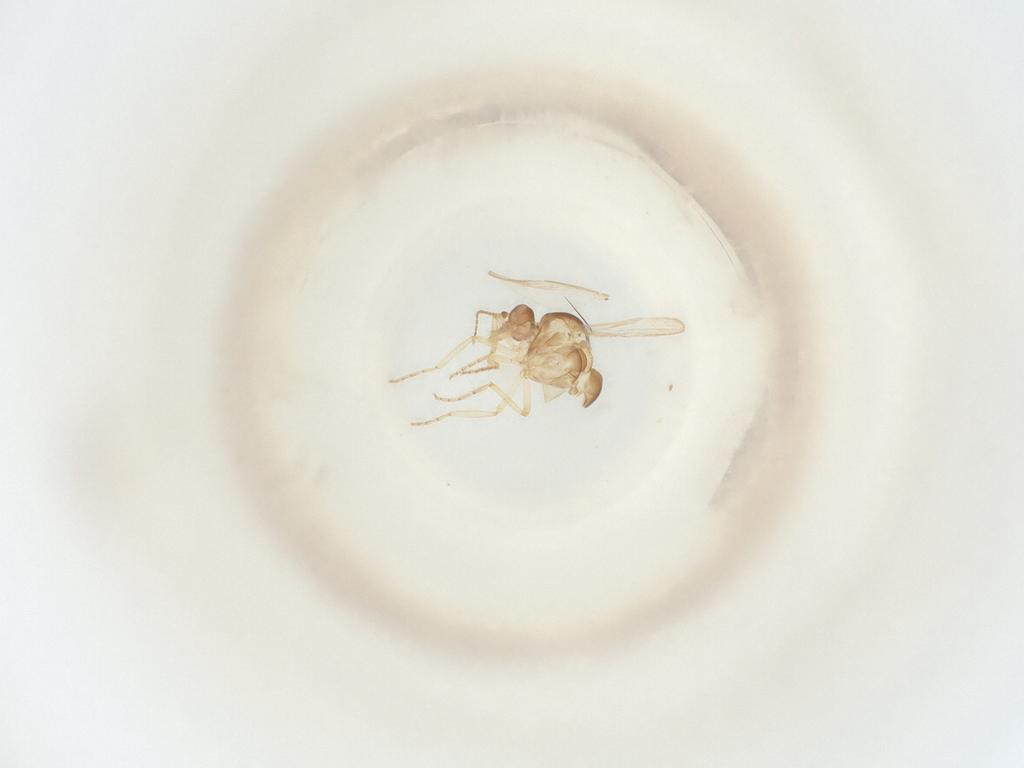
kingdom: Animalia
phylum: Arthropoda
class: Insecta
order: Diptera
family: Ceratopogonidae
